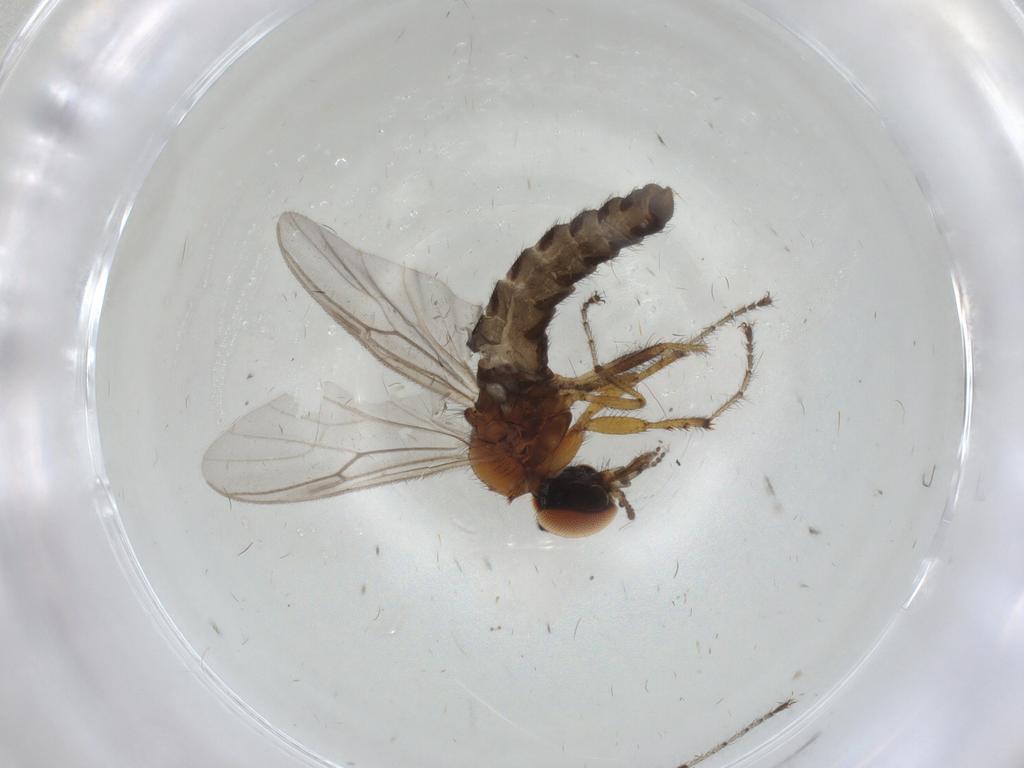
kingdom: Animalia
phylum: Arthropoda
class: Insecta
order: Diptera
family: Bibionidae
